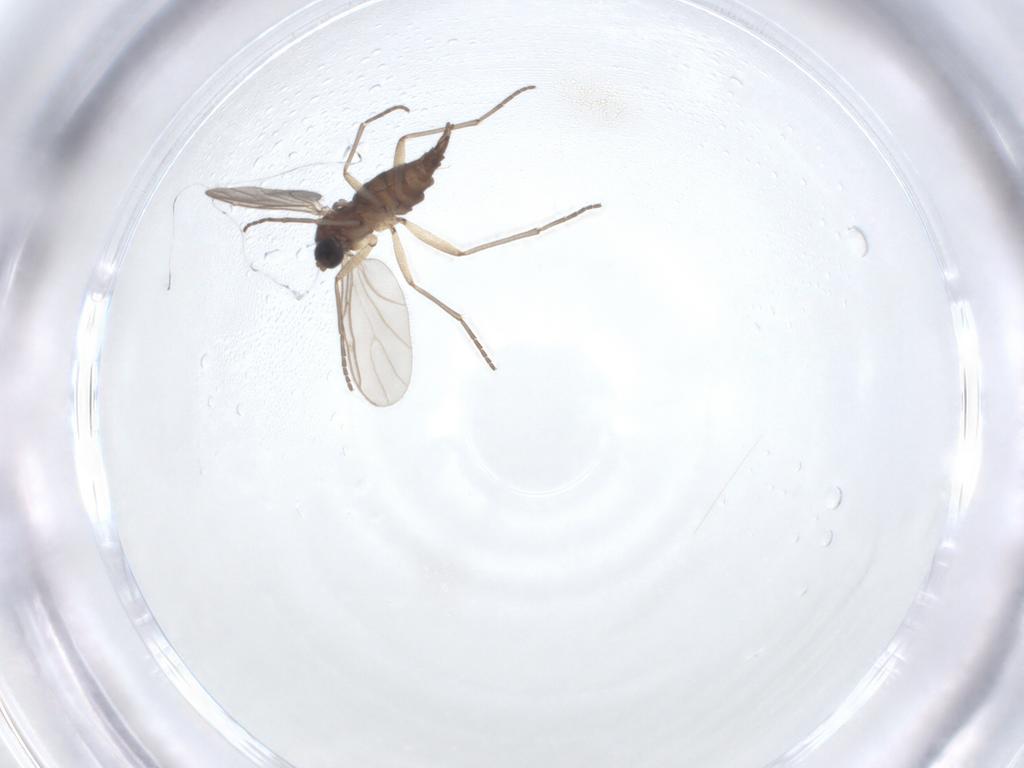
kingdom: Animalia
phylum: Arthropoda
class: Insecta
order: Diptera
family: Sciaridae
